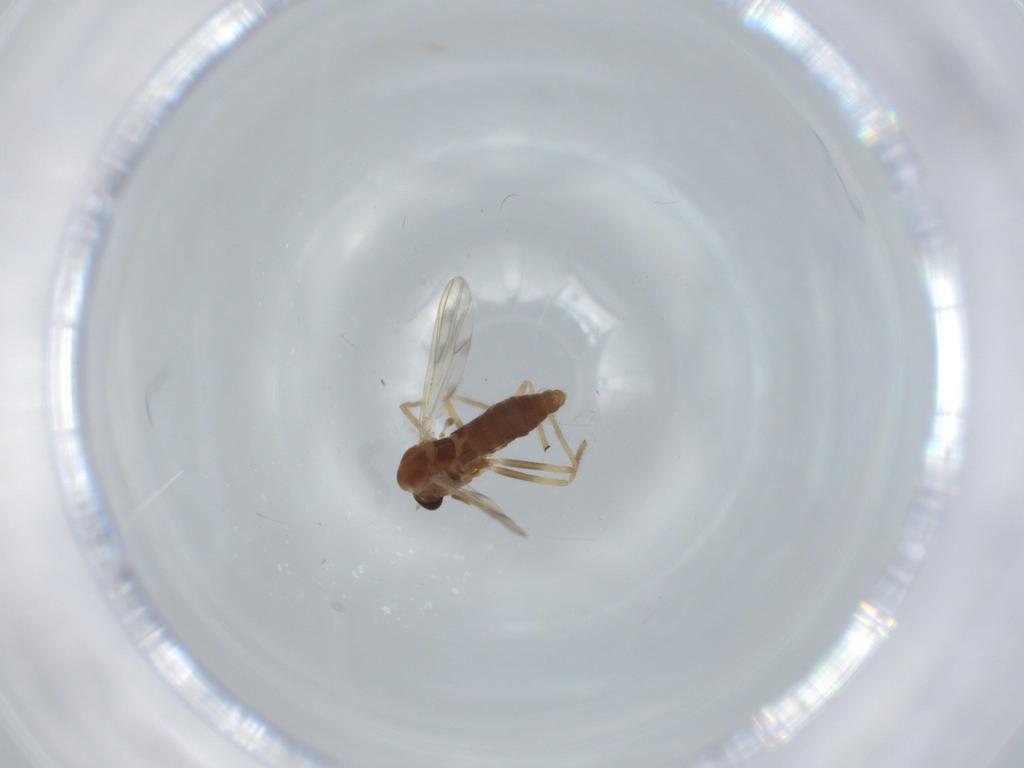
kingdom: Animalia
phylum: Arthropoda
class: Insecta
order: Diptera
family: Chironomidae
